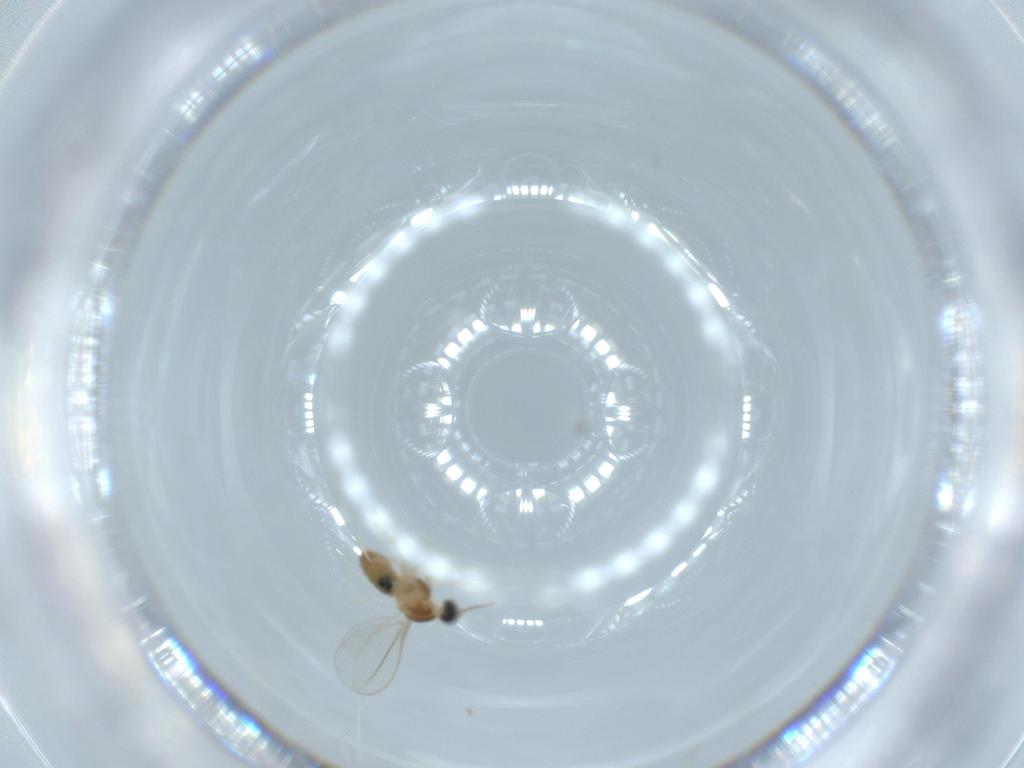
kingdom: Animalia
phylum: Arthropoda
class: Insecta
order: Diptera
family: Cecidomyiidae
